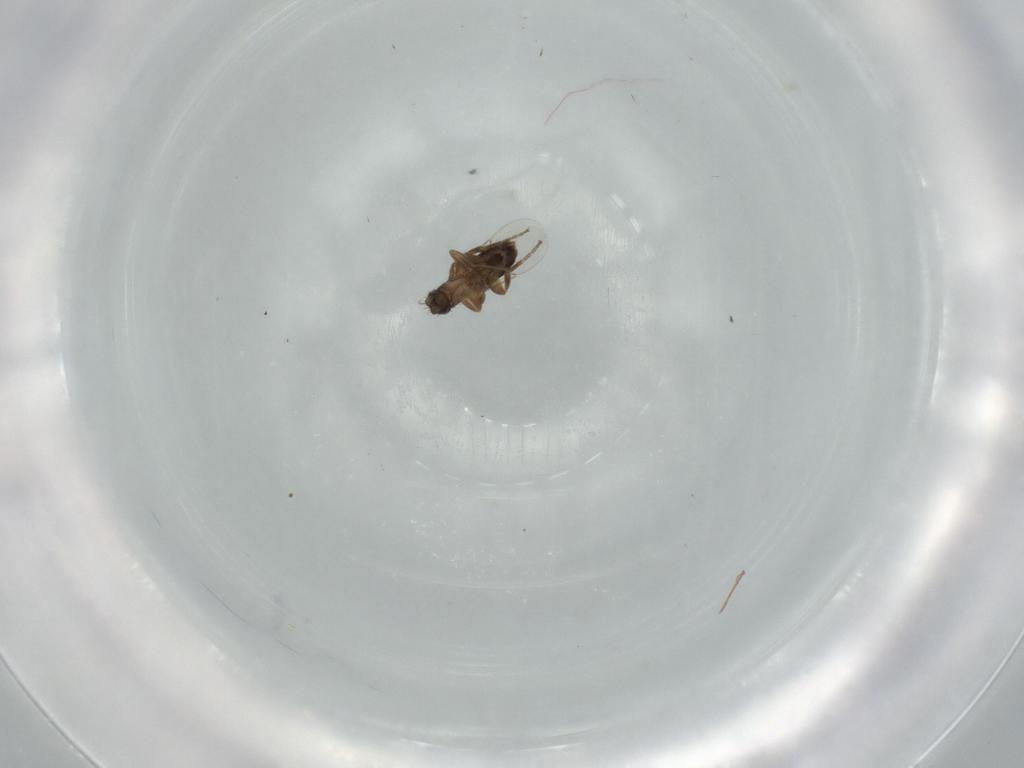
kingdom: Animalia
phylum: Arthropoda
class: Insecta
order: Diptera
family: Phoridae
